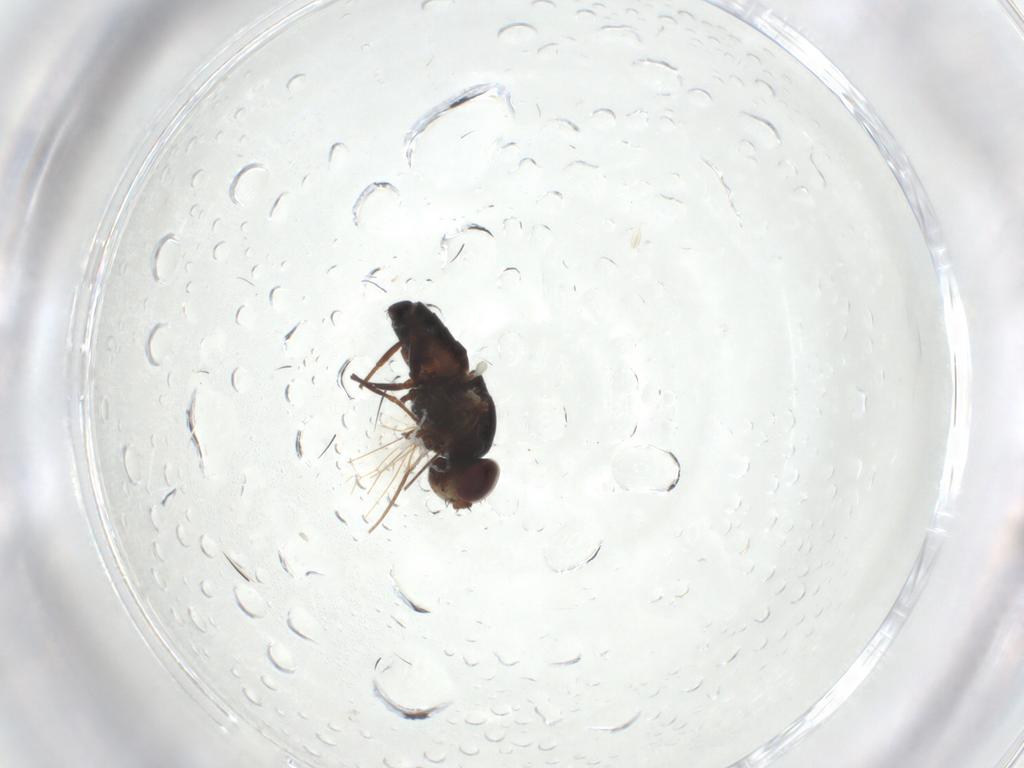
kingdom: Animalia
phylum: Arthropoda
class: Insecta
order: Diptera
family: Carnidae
